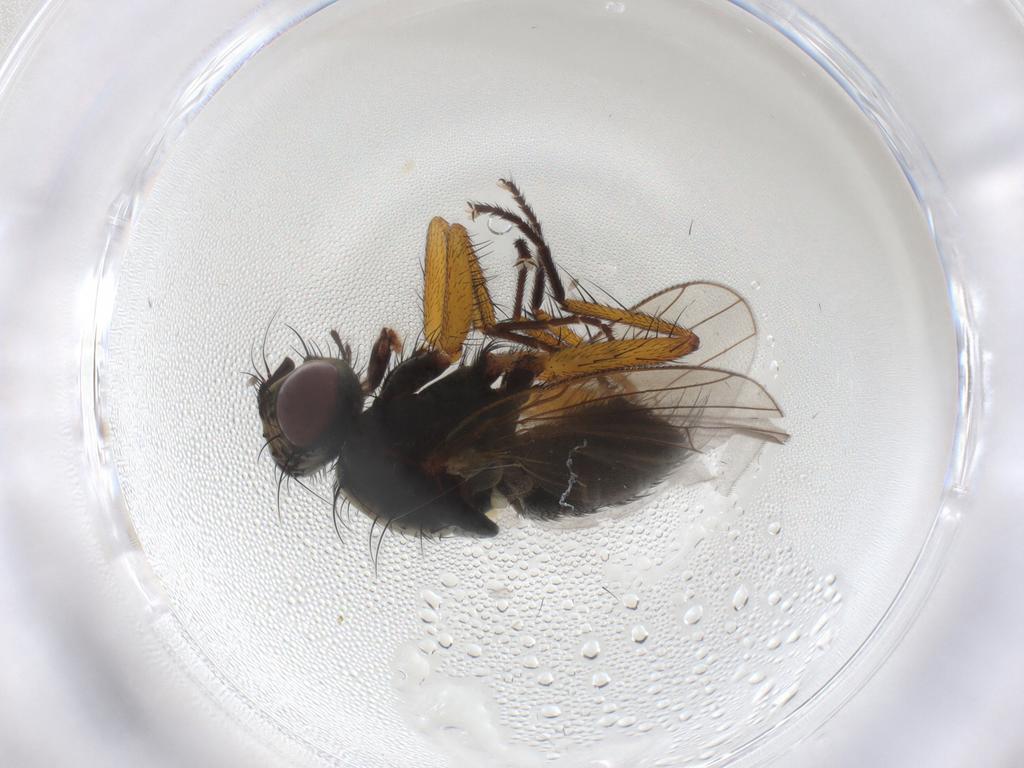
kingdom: Animalia
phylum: Arthropoda
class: Insecta
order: Diptera
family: Muscidae
